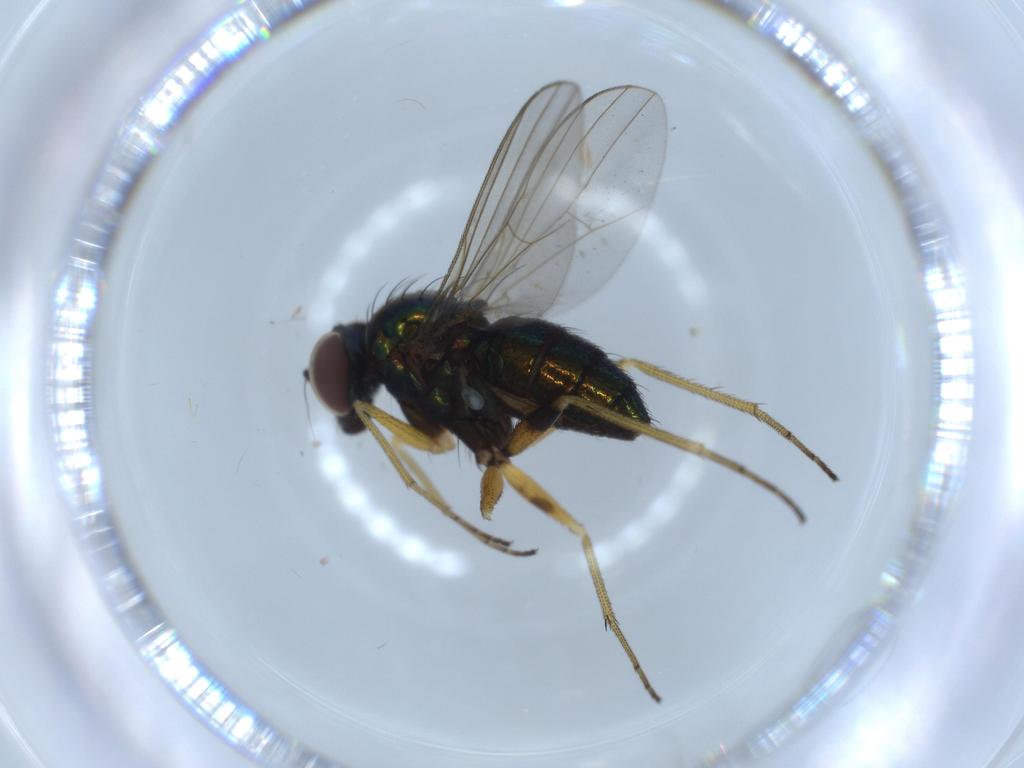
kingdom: Animalia
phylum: Arthropoda
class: Insecta
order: Diptera
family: Dolichopodidae
